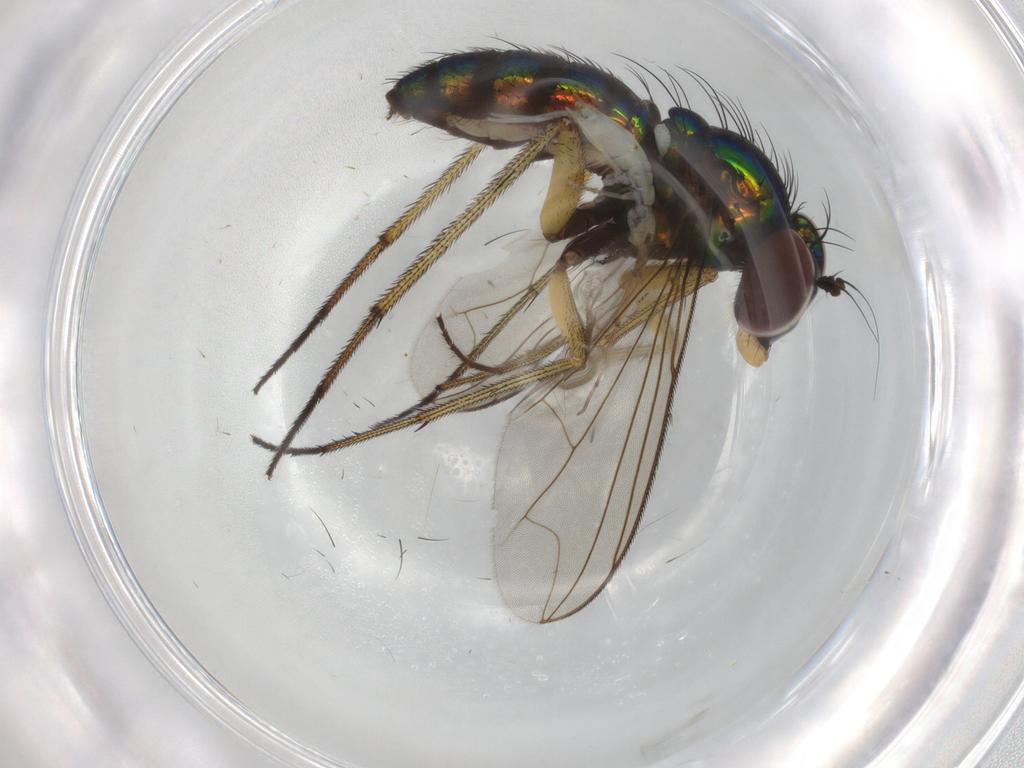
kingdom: Animalia
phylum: Arthropoda
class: Insecta
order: Diptera
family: Dolichopodidae
